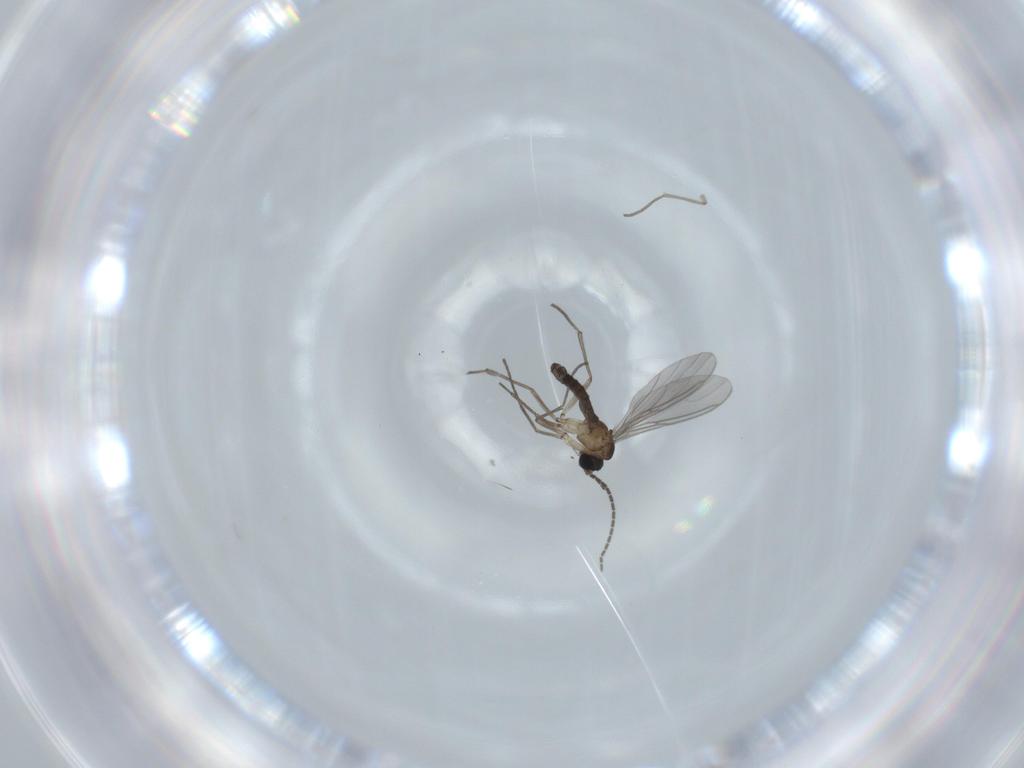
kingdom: Animalia
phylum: Arthropoda
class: Insecta
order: Diptera
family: Sciaridae
